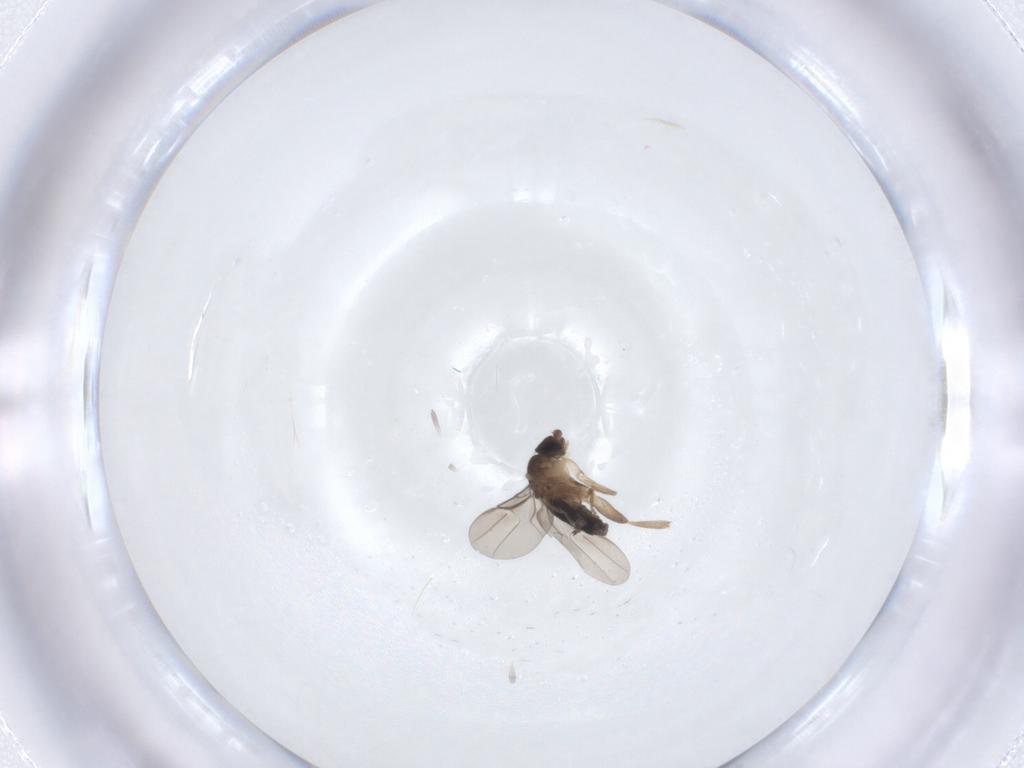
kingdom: Animalia
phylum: Arthropoda
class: Insecta
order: Diptera
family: Phoridae
